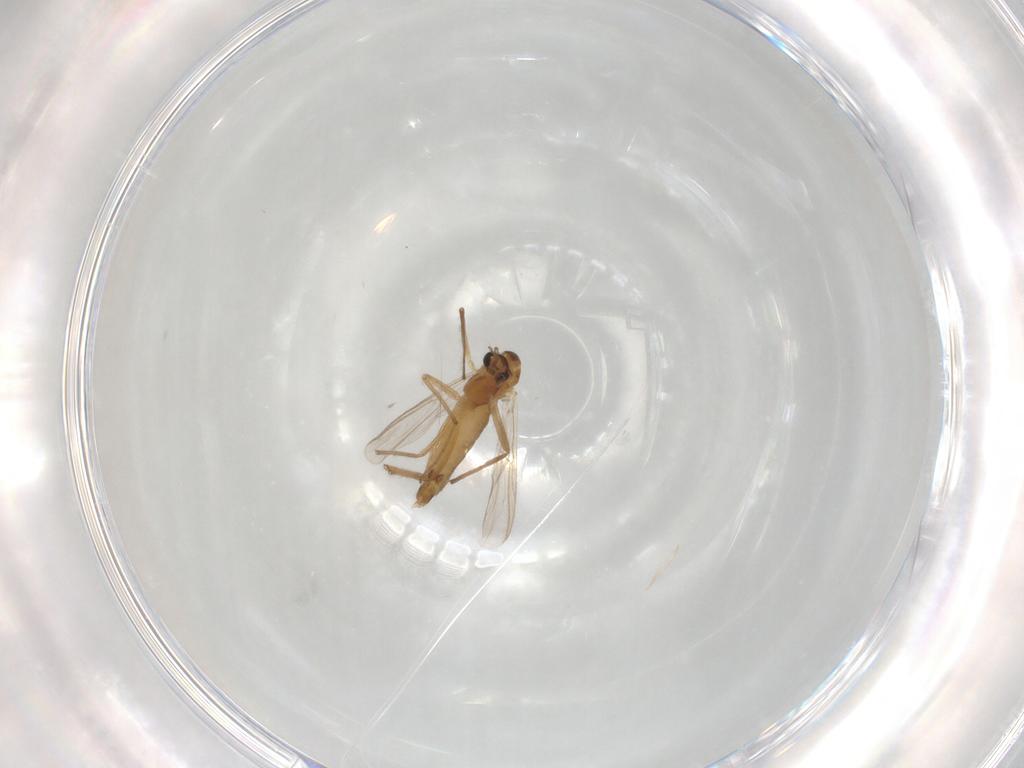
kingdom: Animalia
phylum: Arthropoda
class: Insecta
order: Diptera
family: Chironomidae
